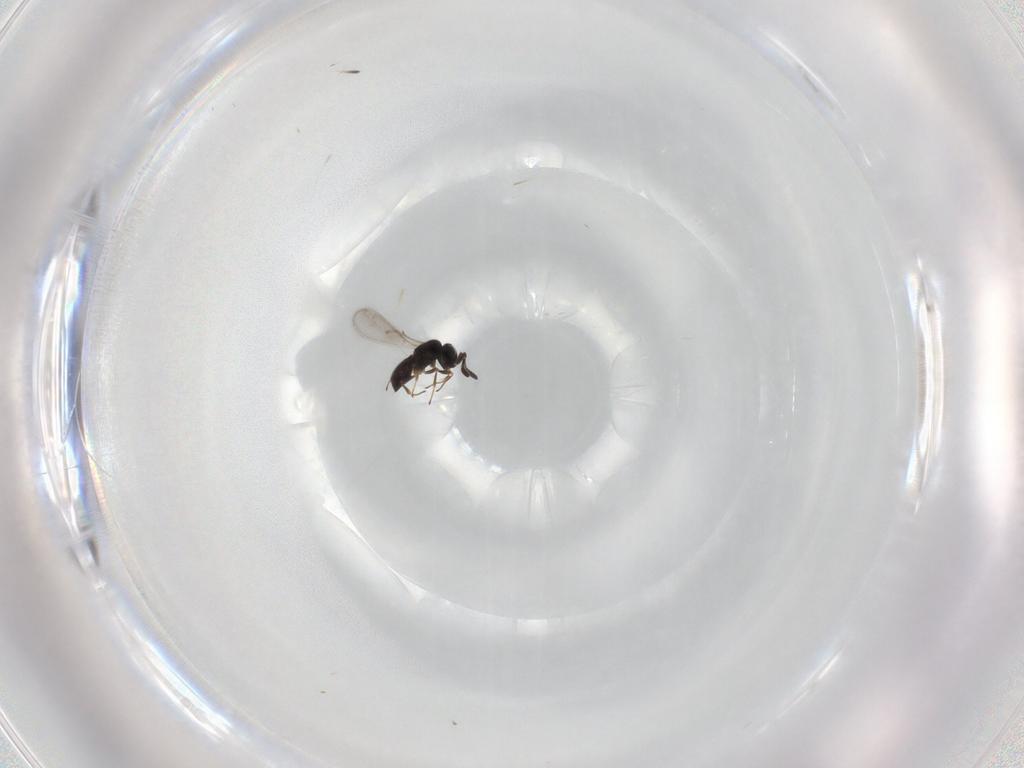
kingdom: Animalia
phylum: Arthropoda
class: Insecta
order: Hymenoptera
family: Scelionidae
